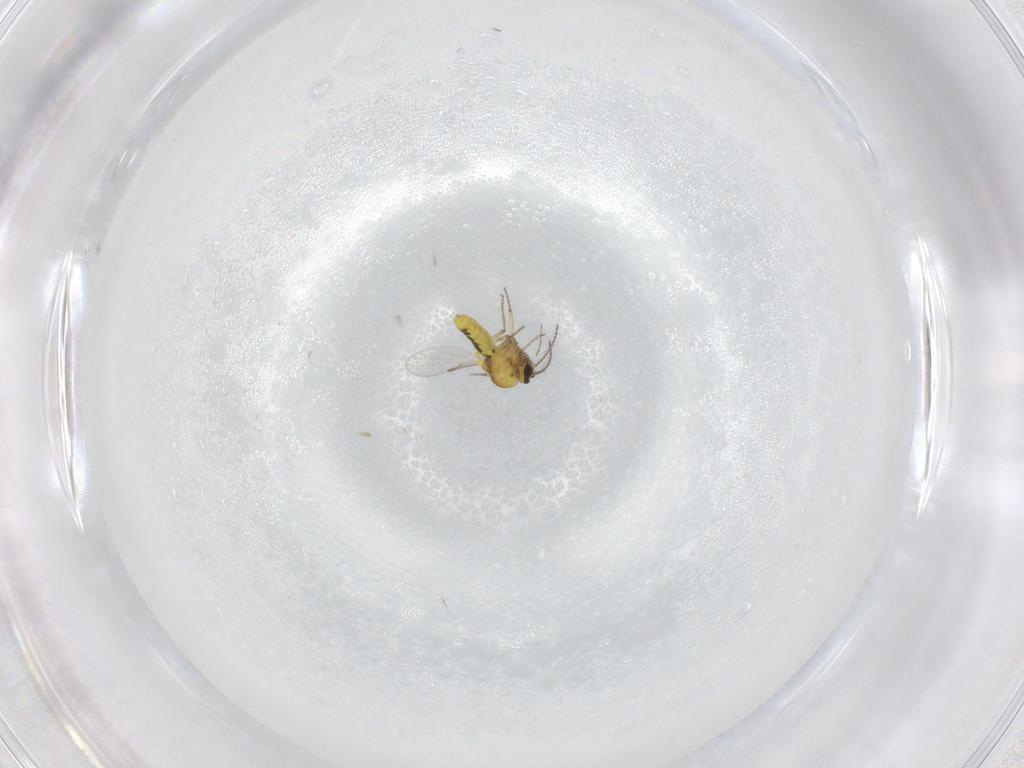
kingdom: Animalia
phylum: Arthropoda
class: Insecta
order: Diptera
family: Ceratopogonidae
